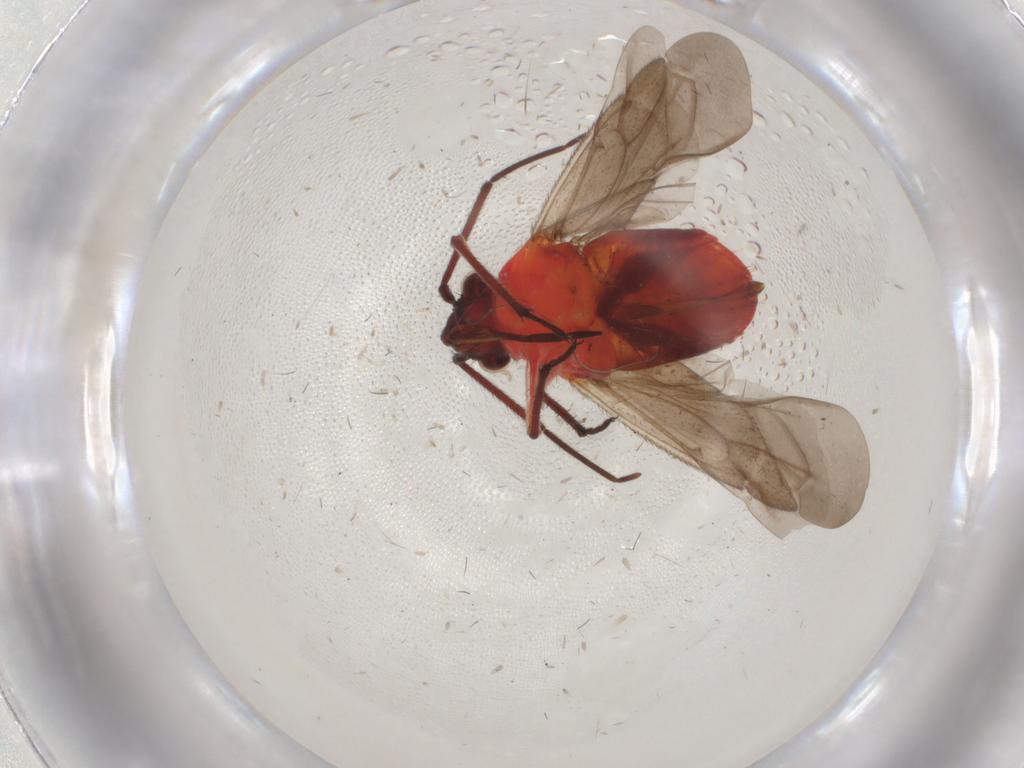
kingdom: Animalia
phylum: Arthropoda
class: Insecta
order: Hemiptera
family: Miridae
